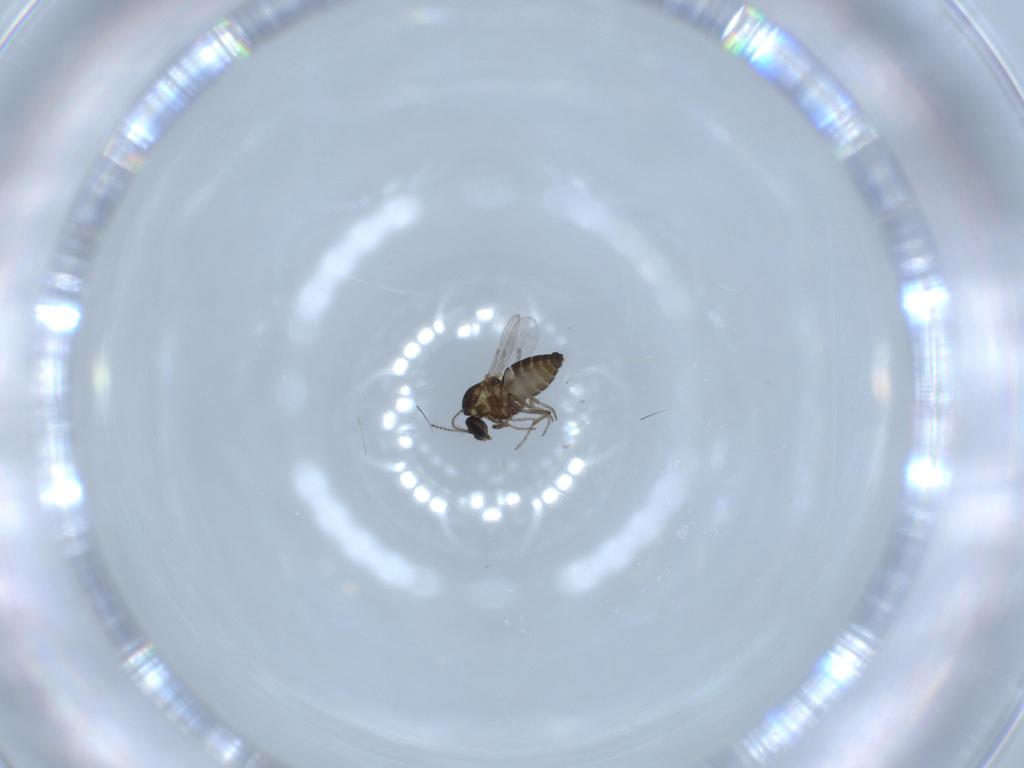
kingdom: Animalia
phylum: Arthropoda
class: Insecta
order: Diptera
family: Ceratopogonidae
